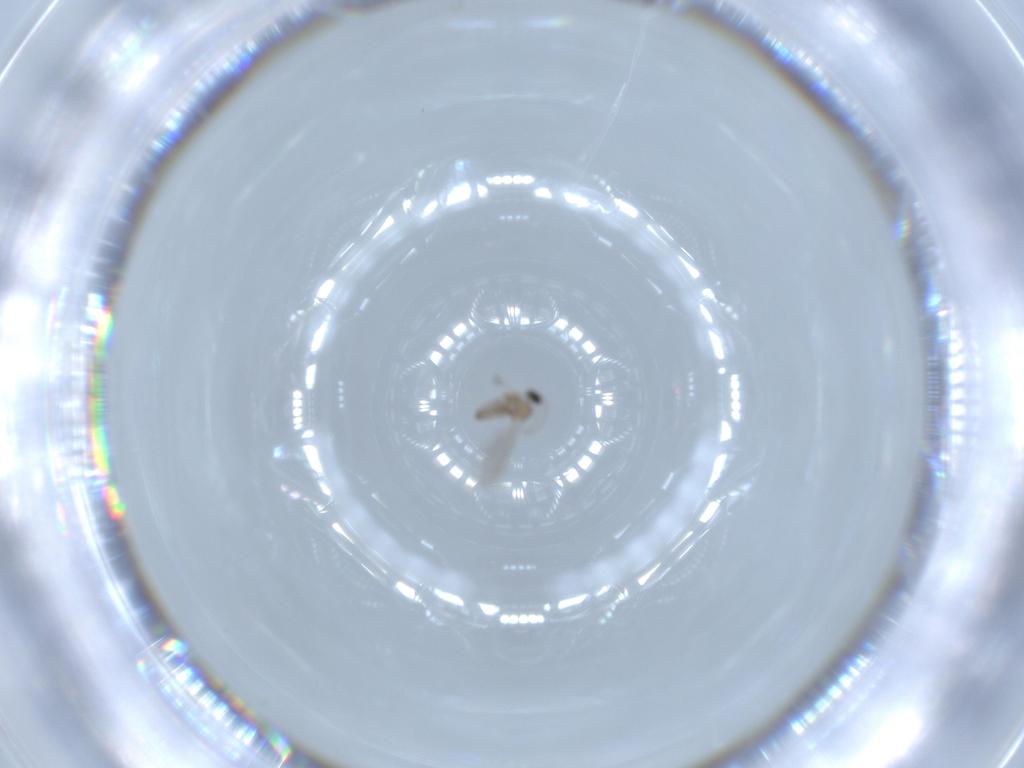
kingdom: Animalia
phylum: Arthropoda
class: Insecta
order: Diptera
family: Cecidomyiidae
